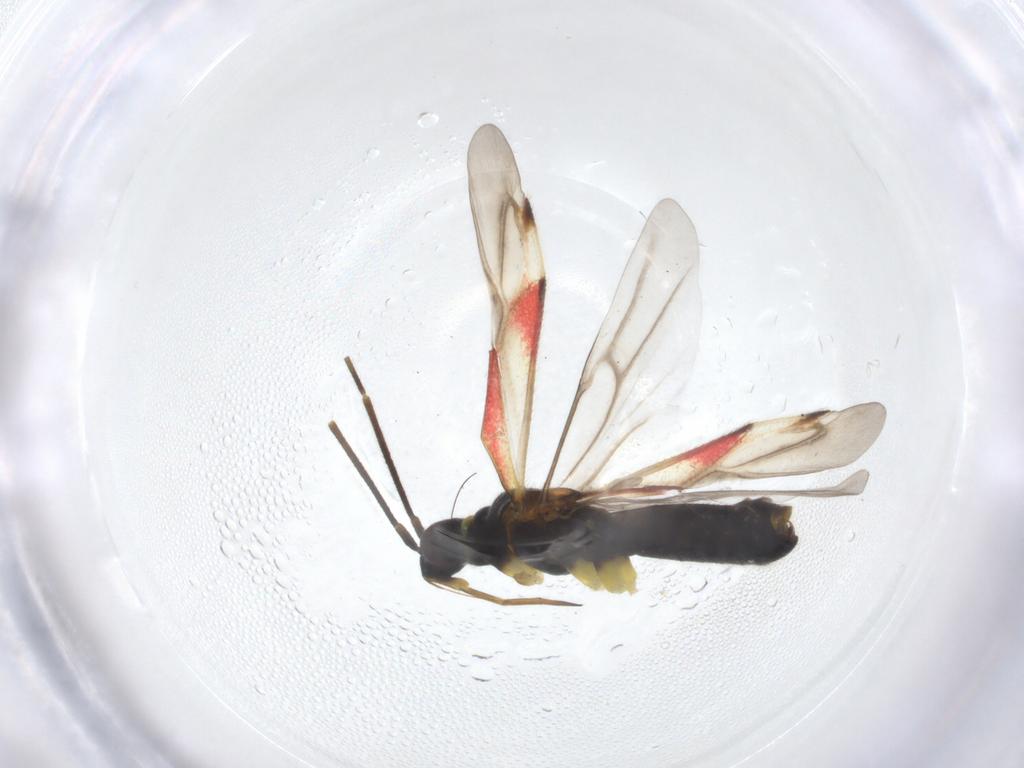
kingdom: Animalia
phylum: Arthropoda
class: Insecta
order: Hemiptera
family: Miridae
